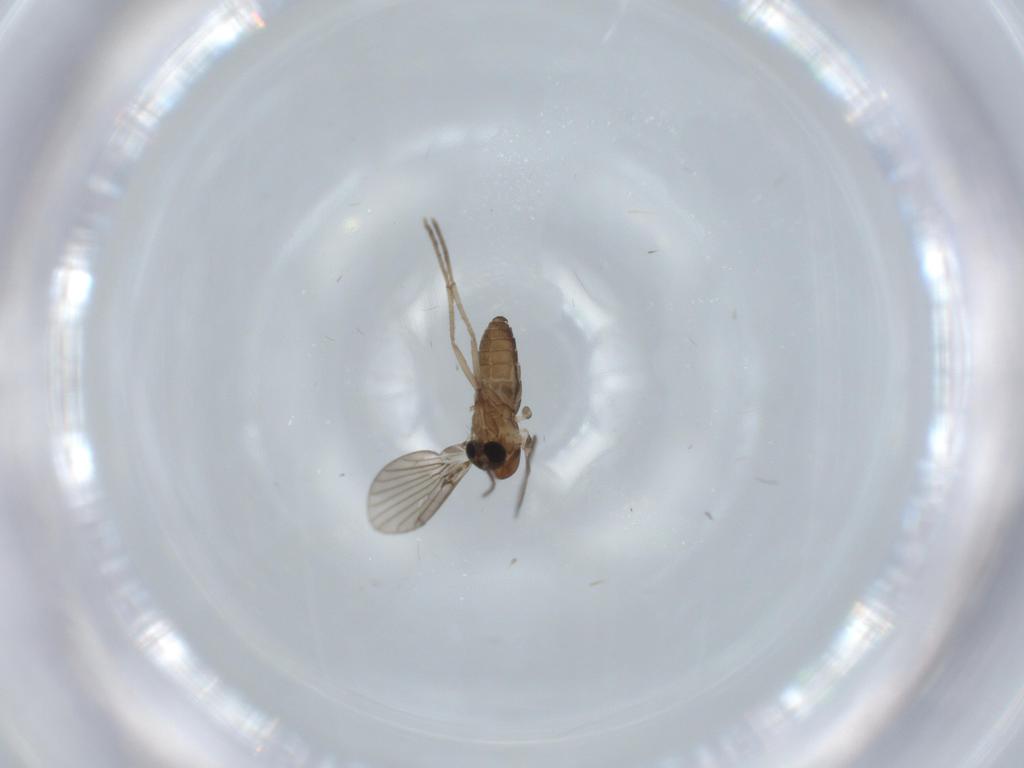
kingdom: Animalia
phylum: Arthropoda
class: Insecta
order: Diptera
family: Psychodidae
